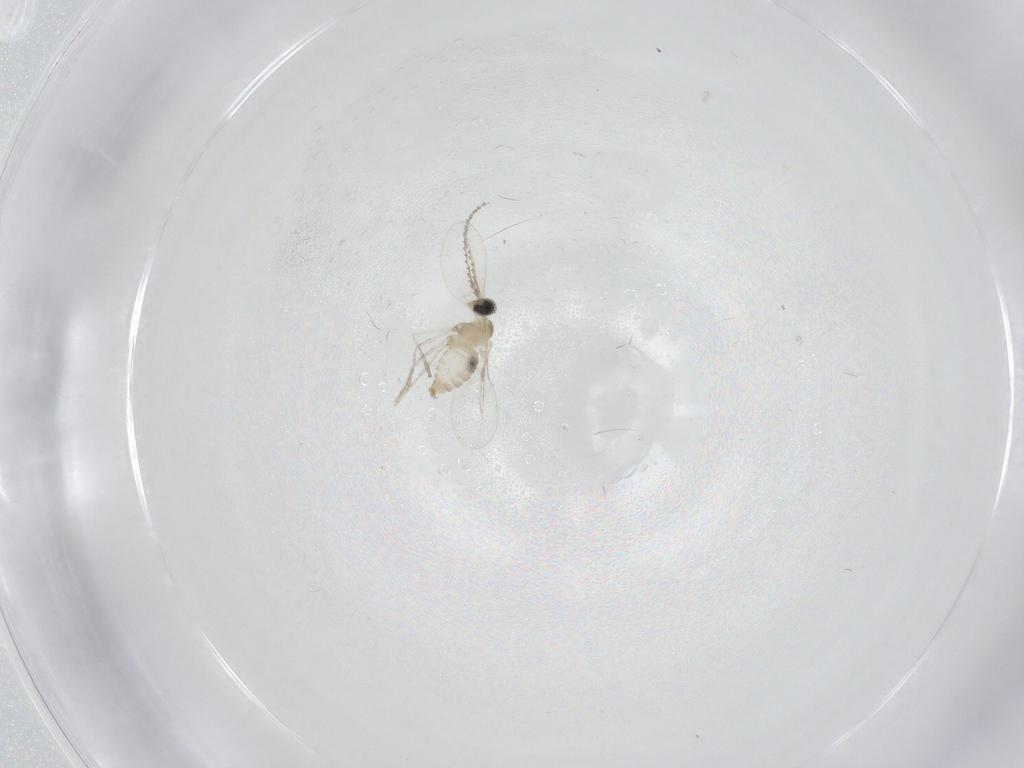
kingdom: Animalia
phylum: Arthropoda
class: Insecta
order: Diptera
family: Cecidomyiidae
